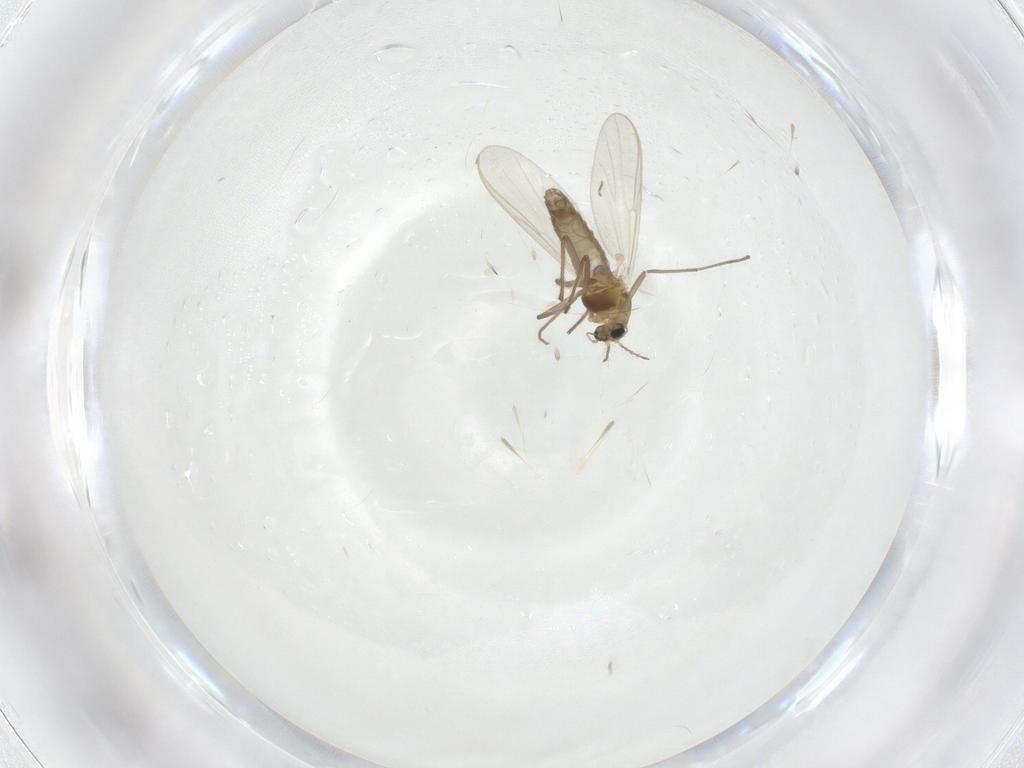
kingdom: Animalia
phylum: Arthropoda
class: Insecta
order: Diptera
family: Chironomidae
